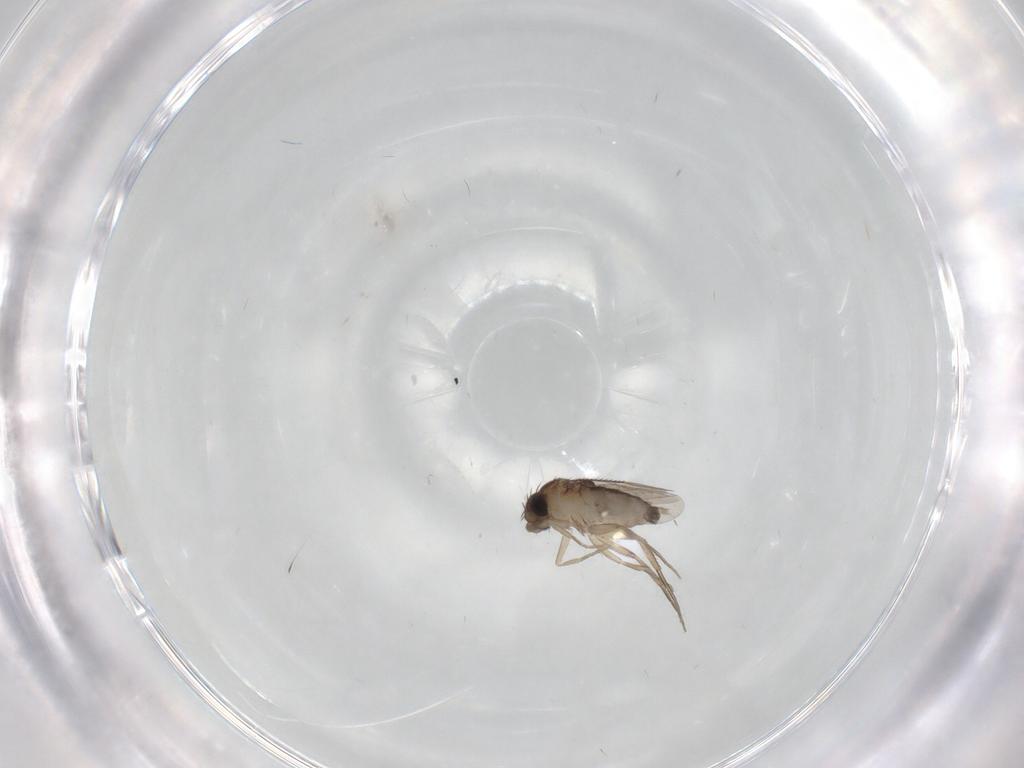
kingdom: Animalia
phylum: Arthropoda
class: Insecta
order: Diptera
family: Phoridae
